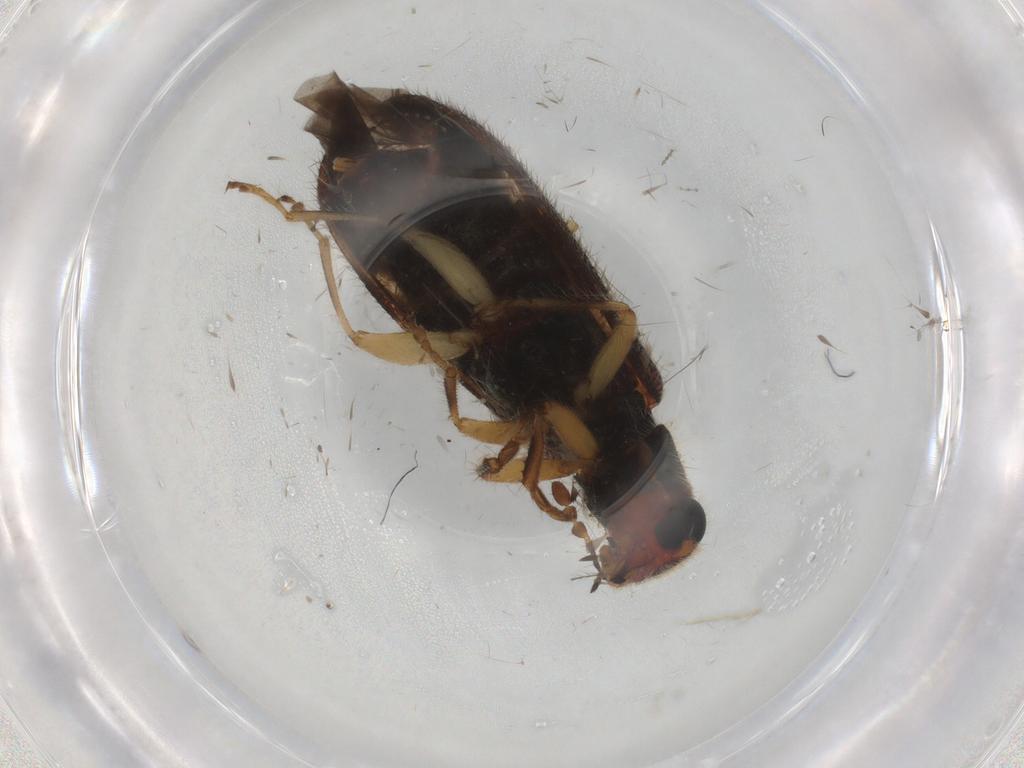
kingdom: Animalia
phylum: Arthropoda
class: Insecta
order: Coleoptera
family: Cleridae
